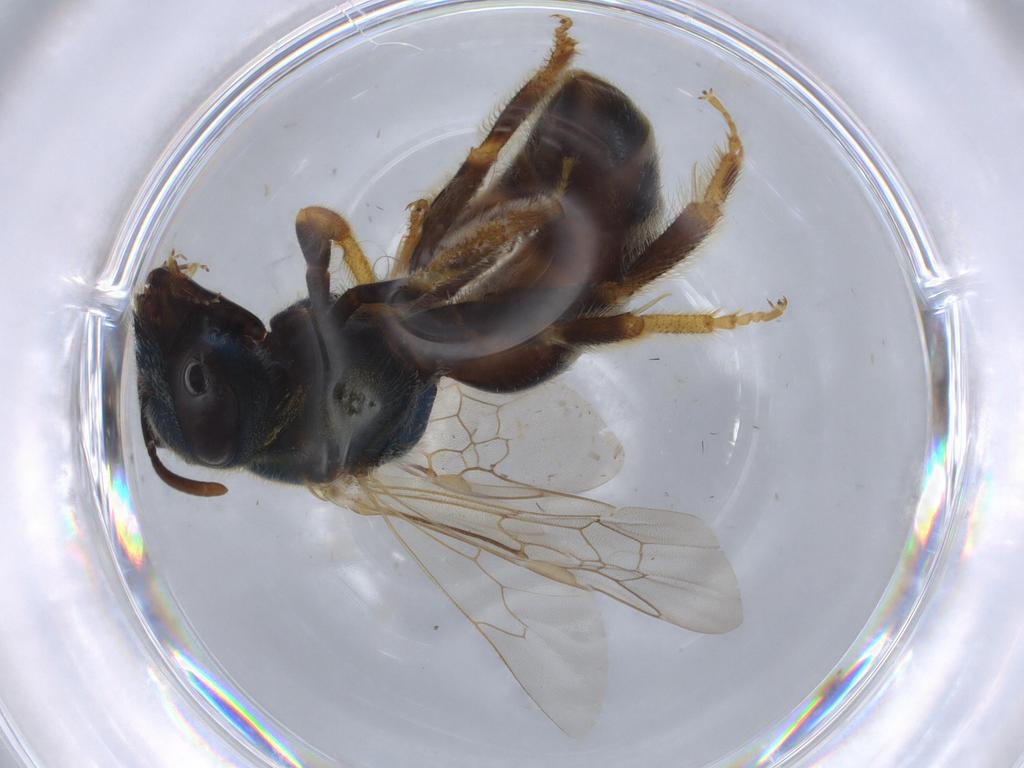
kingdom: Animalia
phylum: Arthropoda
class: Insecta
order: Hymenoptera
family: Halictidae
